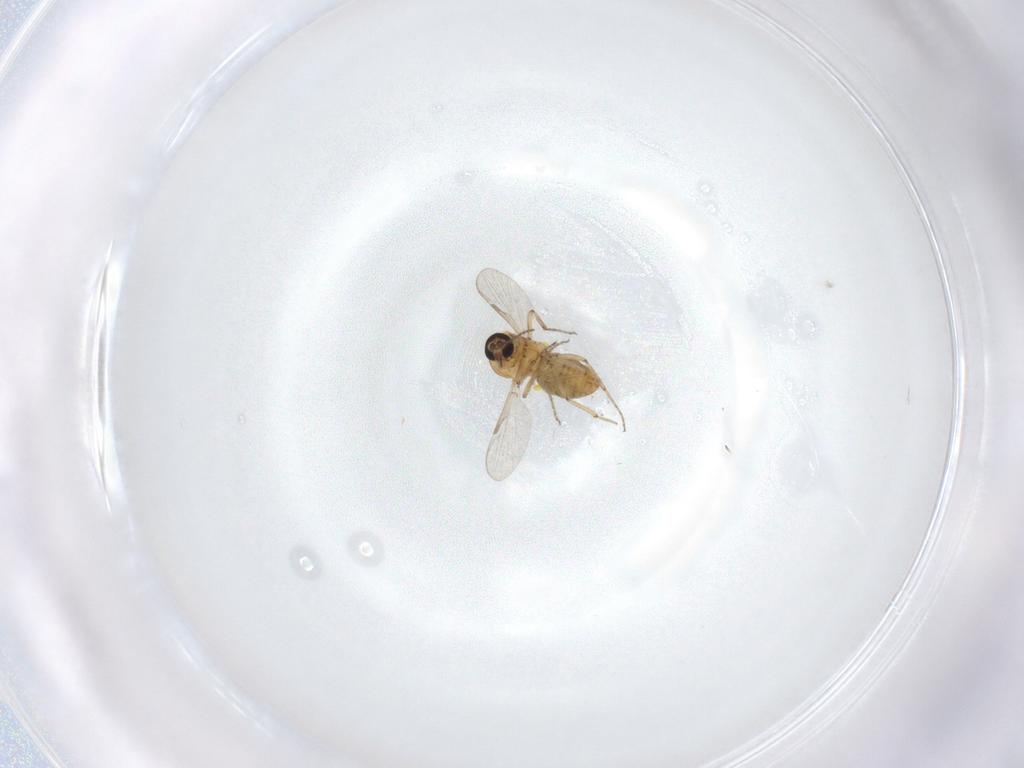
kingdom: Animalia
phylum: Arthropoda
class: Insecta
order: Diptera
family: Ceratopogonidae
